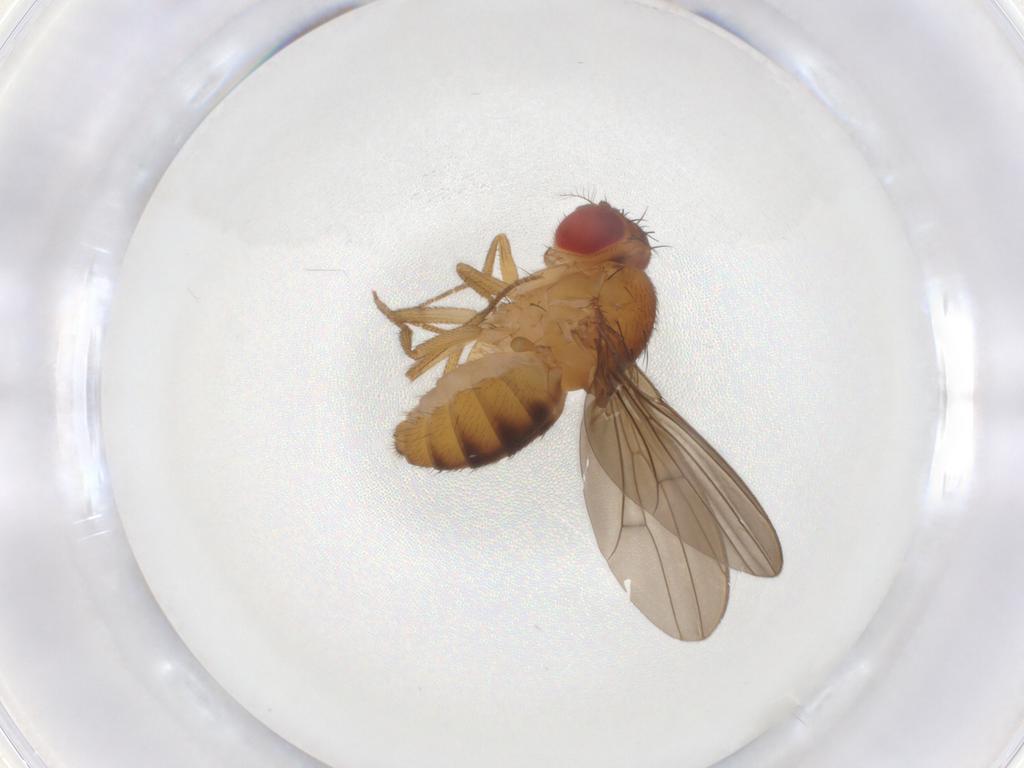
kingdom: Animalia
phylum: Arthropoda
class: Insecta
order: Diptera
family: Drosophilidae
